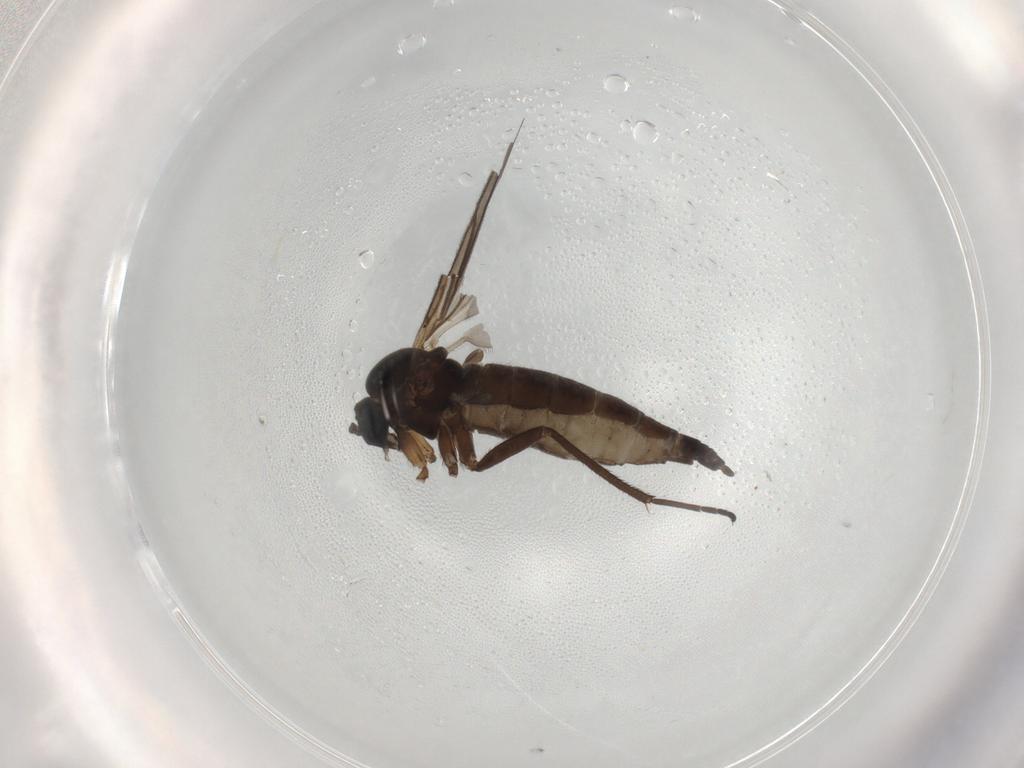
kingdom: Animalia
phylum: Arthropoda
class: Insecta
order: Diptera
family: Sciaridae
